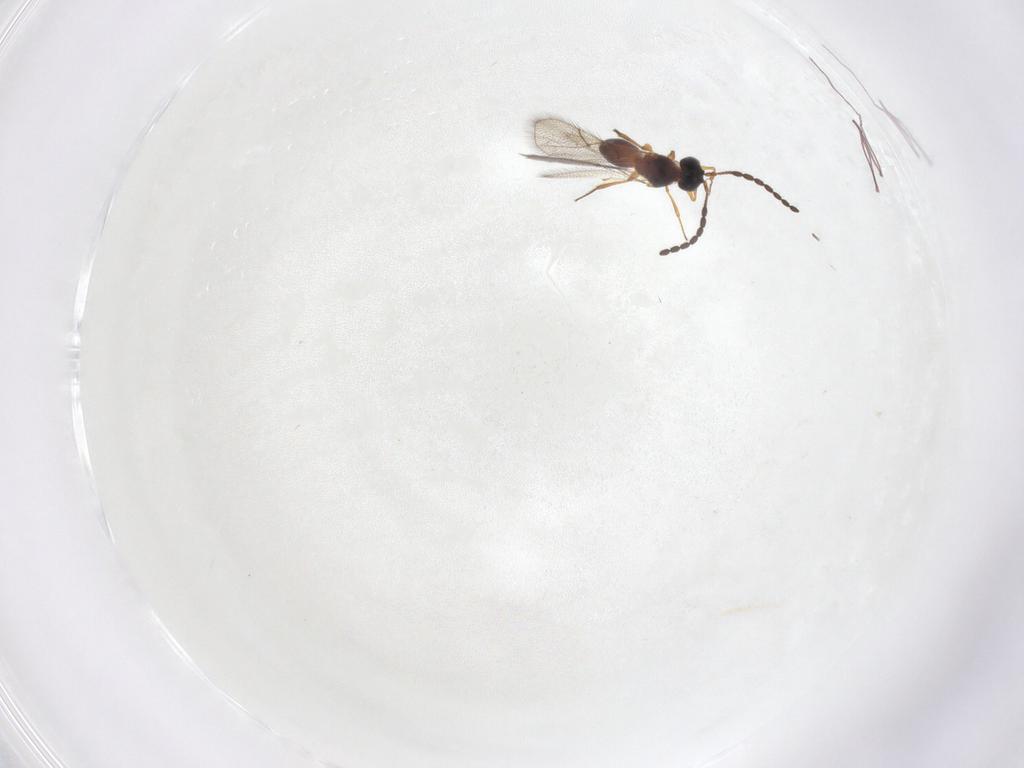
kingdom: Animalia
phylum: Arthropoda
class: Insecta
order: Hymenoptera
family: Figitidae
